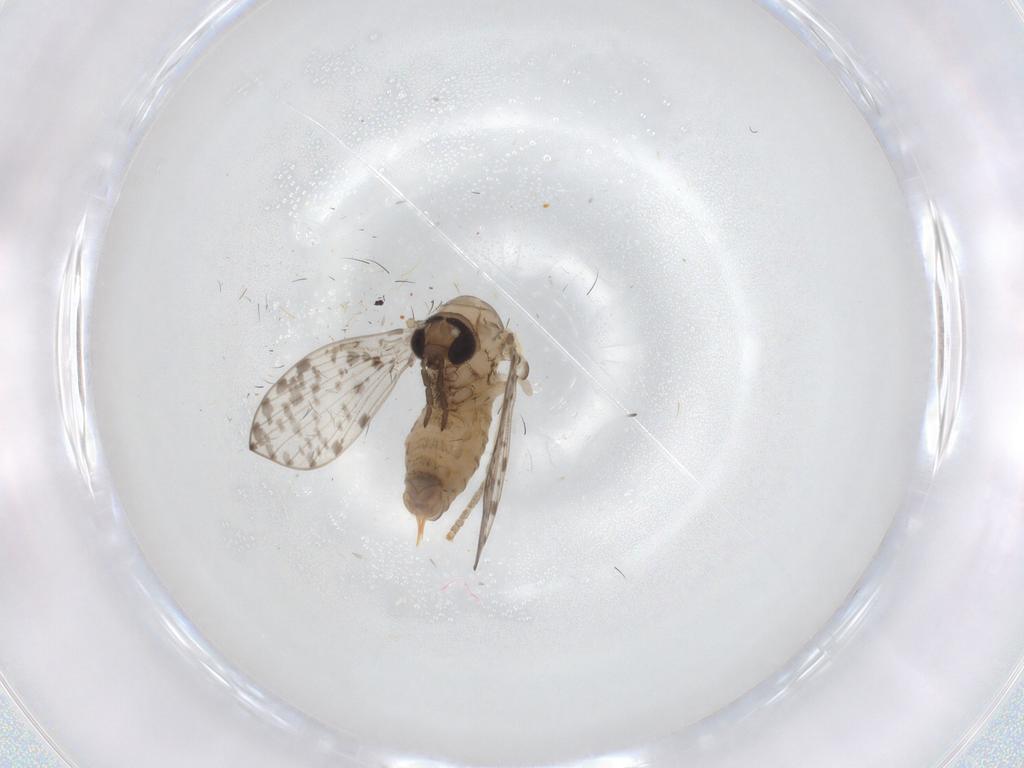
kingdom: Animalia
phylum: Arthropoda
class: Insecta
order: Diptera
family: Psychodidae
